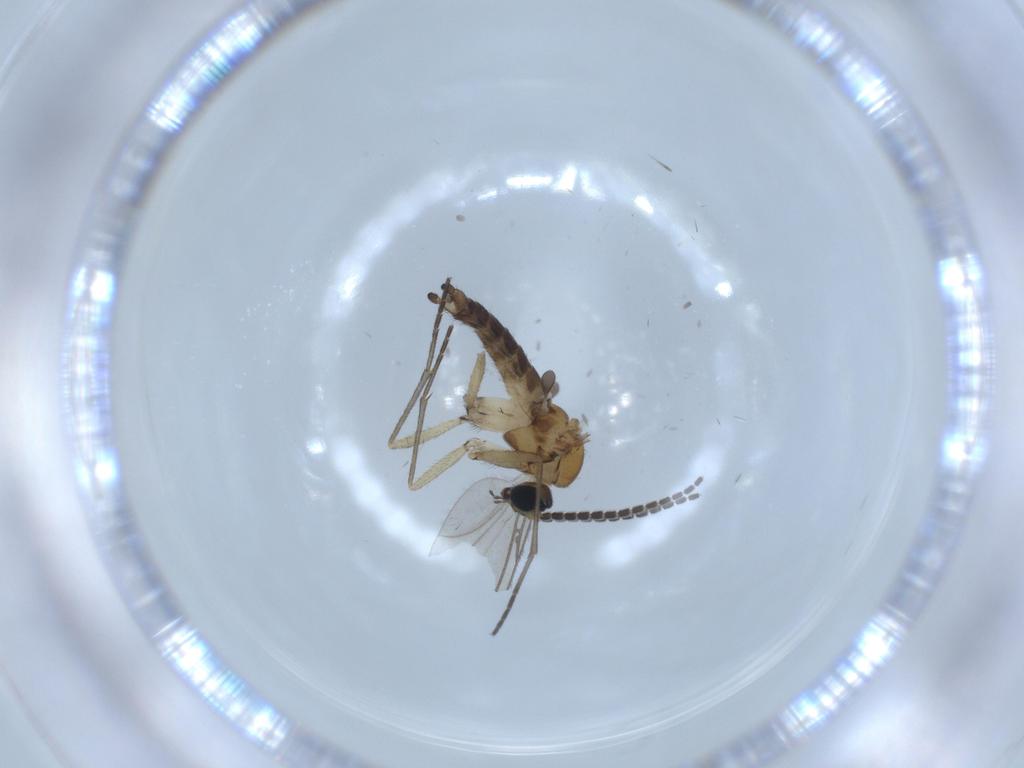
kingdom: Animalia
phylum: Arthropoda
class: Insecta
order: Diptera
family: Sciaridae
